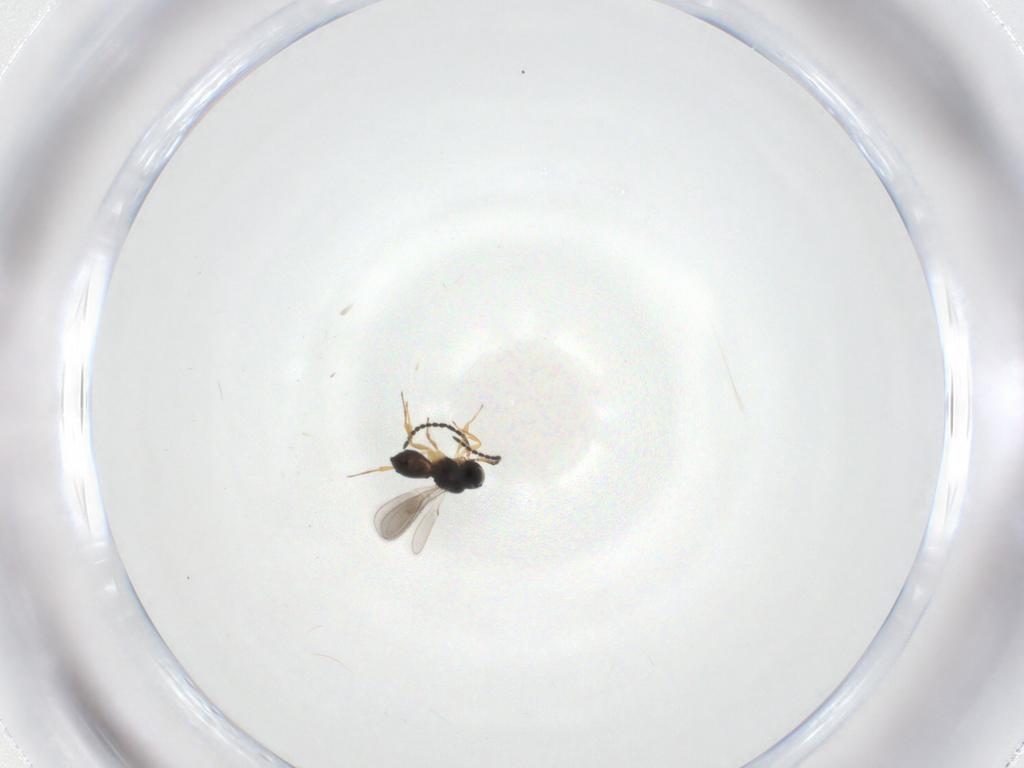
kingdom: Animalia
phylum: Arthropoda
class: Insecta
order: Hymenoptera
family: Scelionidae
